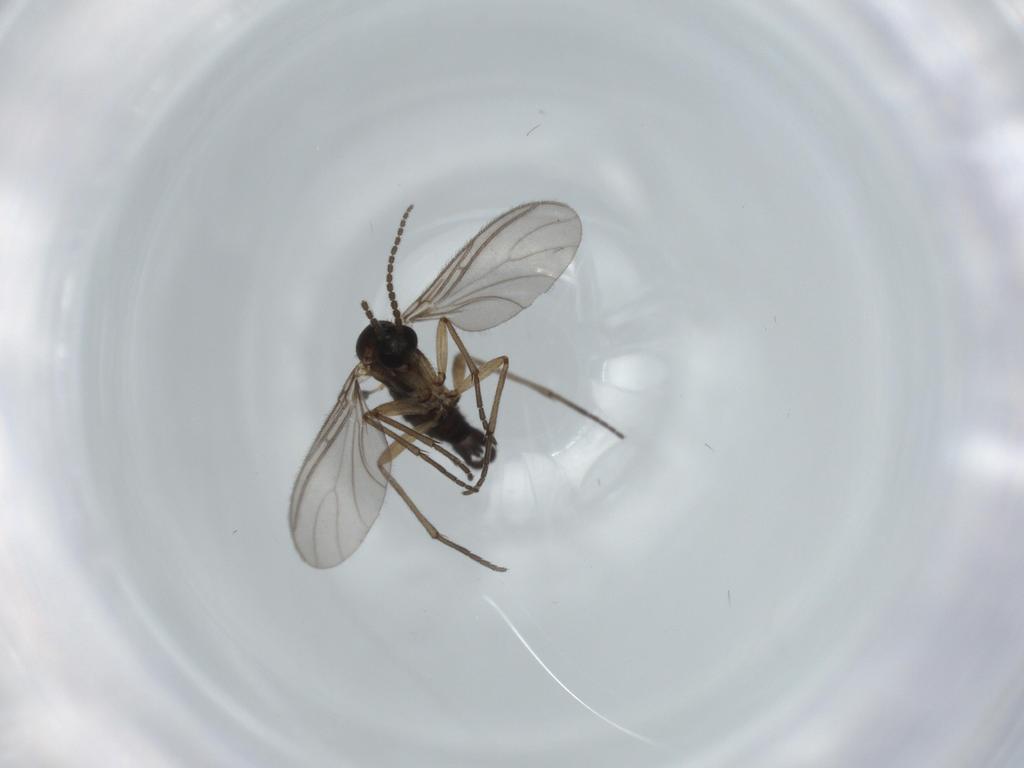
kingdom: Animalia
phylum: Arthropoda
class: Insecta
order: Diptera
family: Sciaridae
